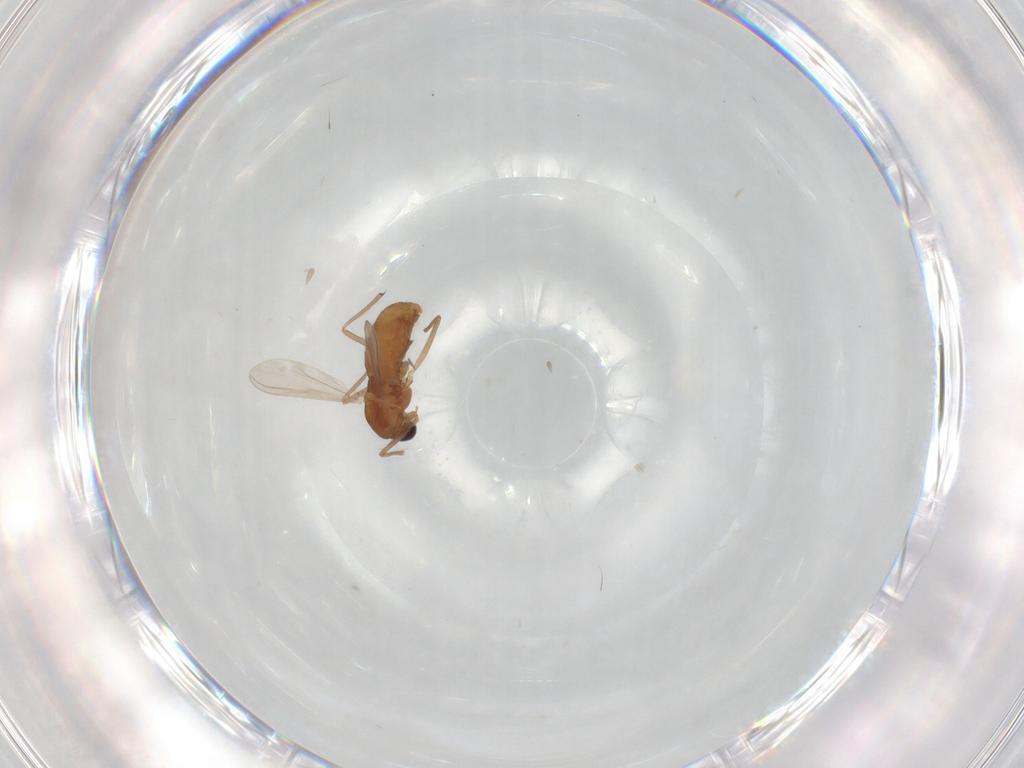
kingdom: Animalia
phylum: Arthropoda
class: Insecta
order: Diptera
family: Chironomidae
